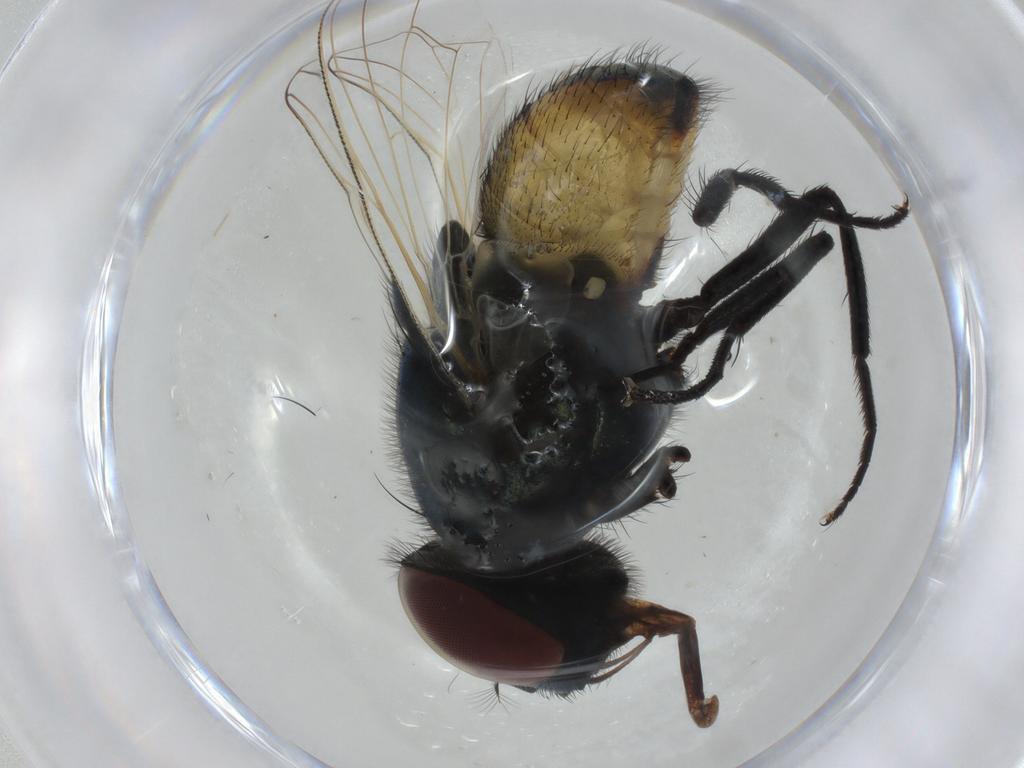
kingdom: Animalia
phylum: Arthropoda
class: Insecta
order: Diptera
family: Muscidae
